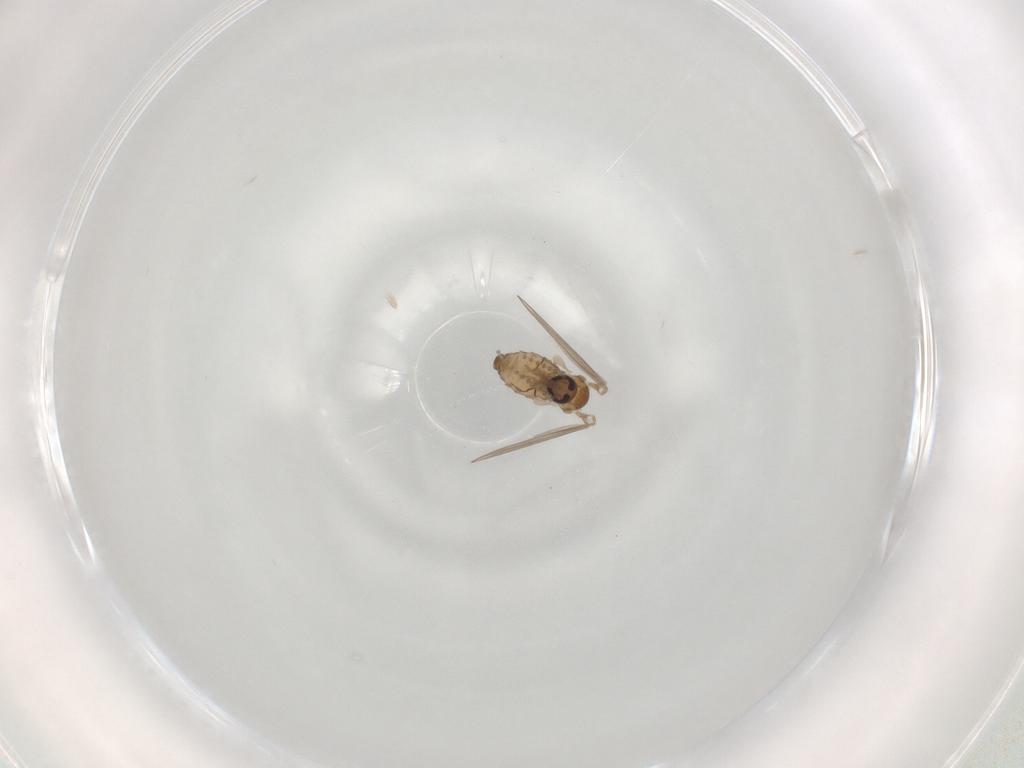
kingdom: Animalia
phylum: Arthropoda
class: Insecta
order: Diptera
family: Psychodidae
